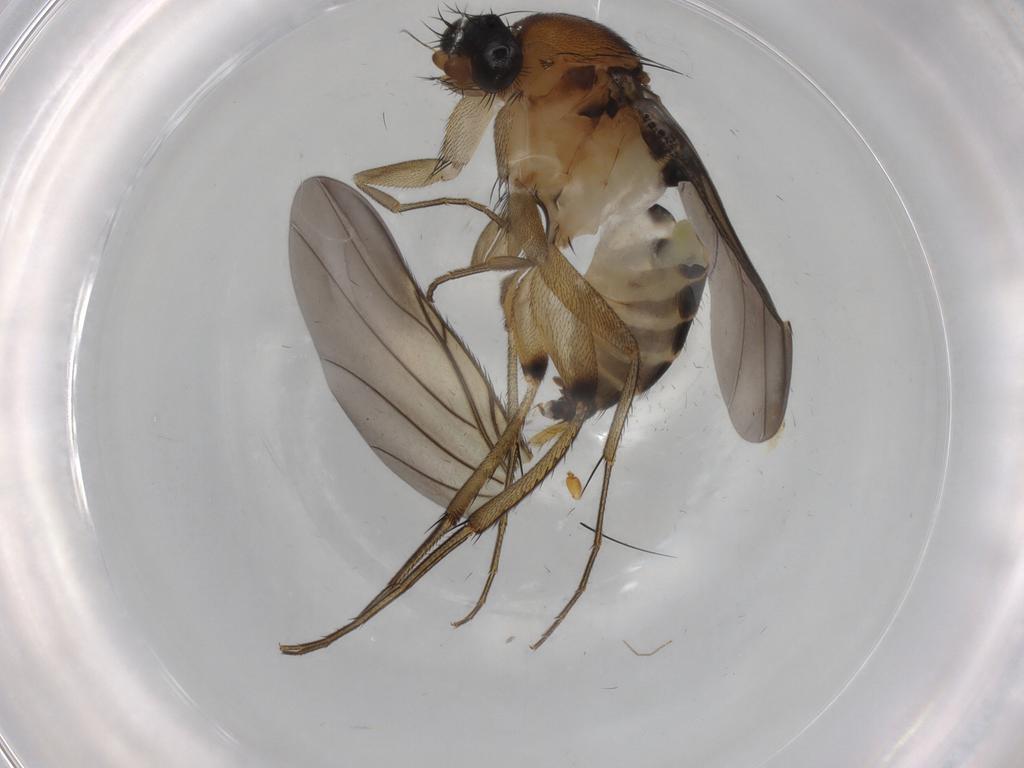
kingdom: Animalia
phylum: Arthropoda
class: Insecta
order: Diptera
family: Phoridae
